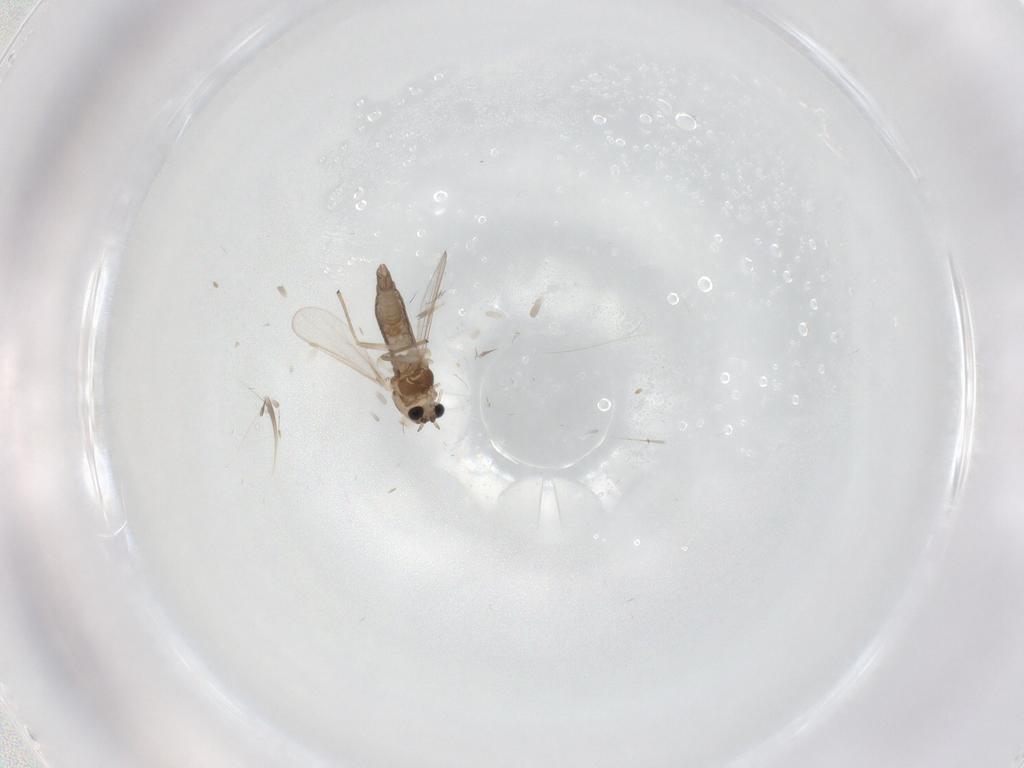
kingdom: Animalia
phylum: Arthropoda
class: Insecta
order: Diptera
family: Chironomidae
